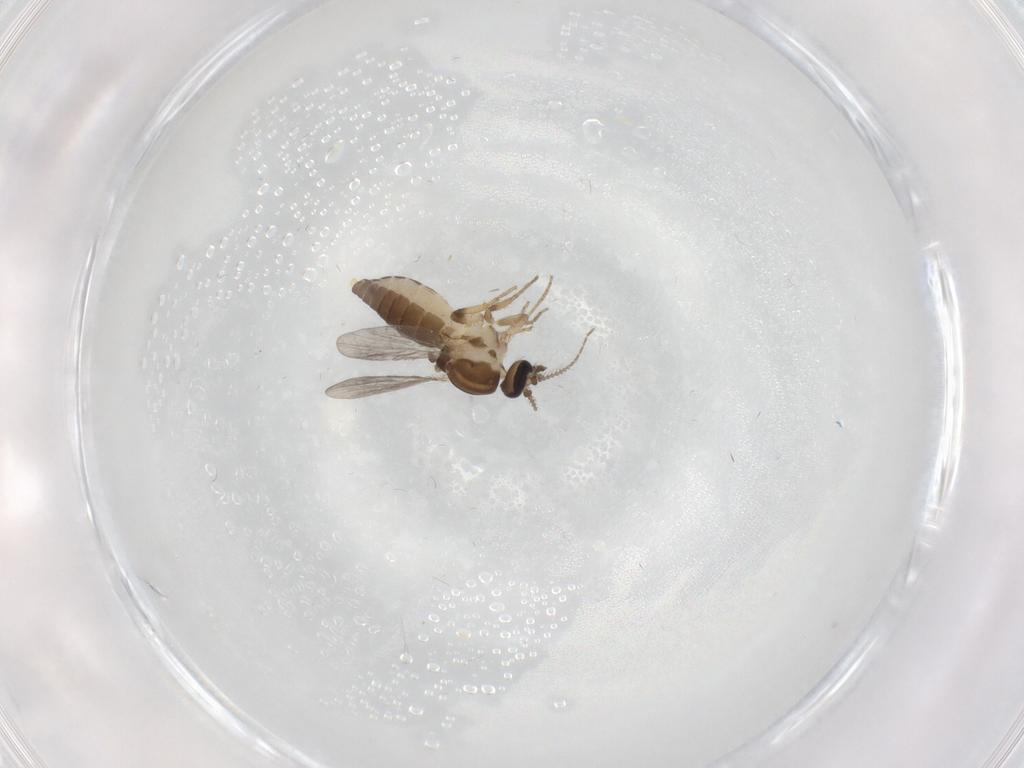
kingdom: Animalia
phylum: Arthropoda
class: Insecta
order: Diptera
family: Ceratopogonidae
